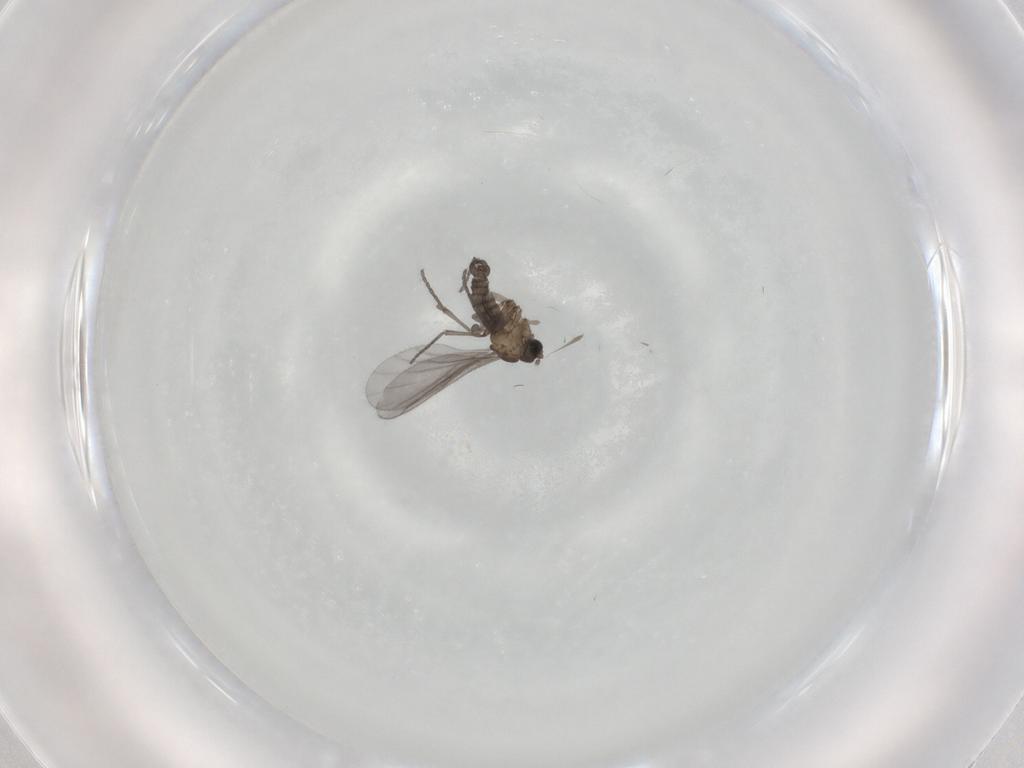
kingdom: Animalia
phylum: Arthropoda
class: Insecta
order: Diptera
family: Sciaridae
